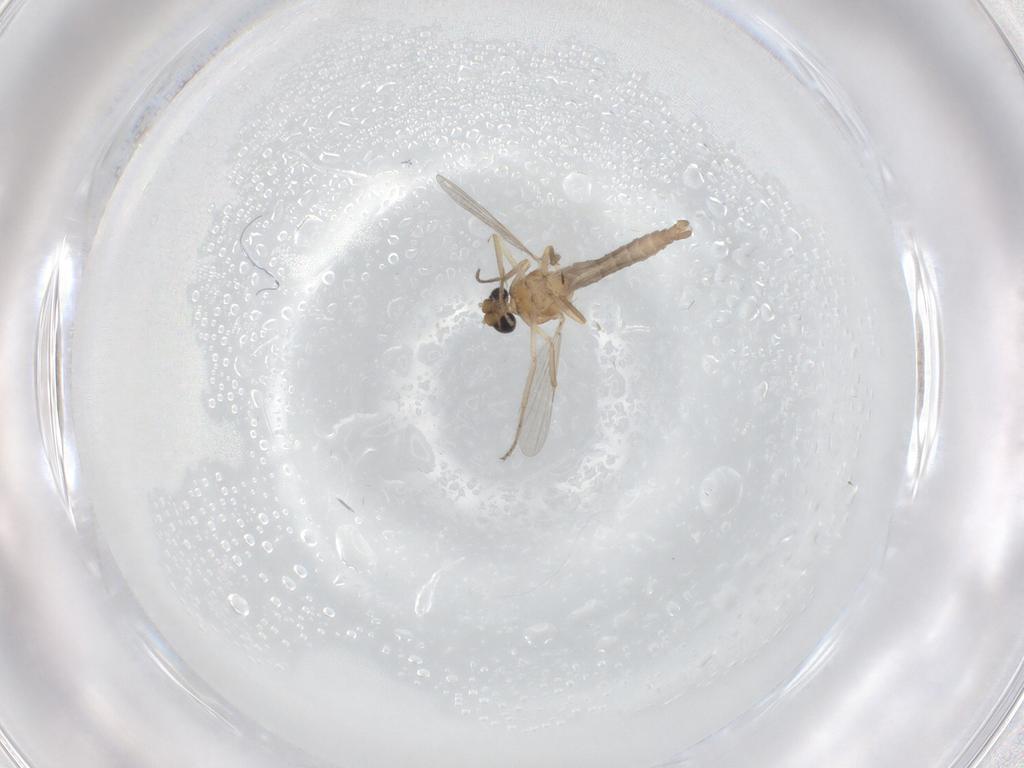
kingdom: Animalia
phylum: Arthropoda
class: Insecta
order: Diptera
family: Ceratopogonidae
